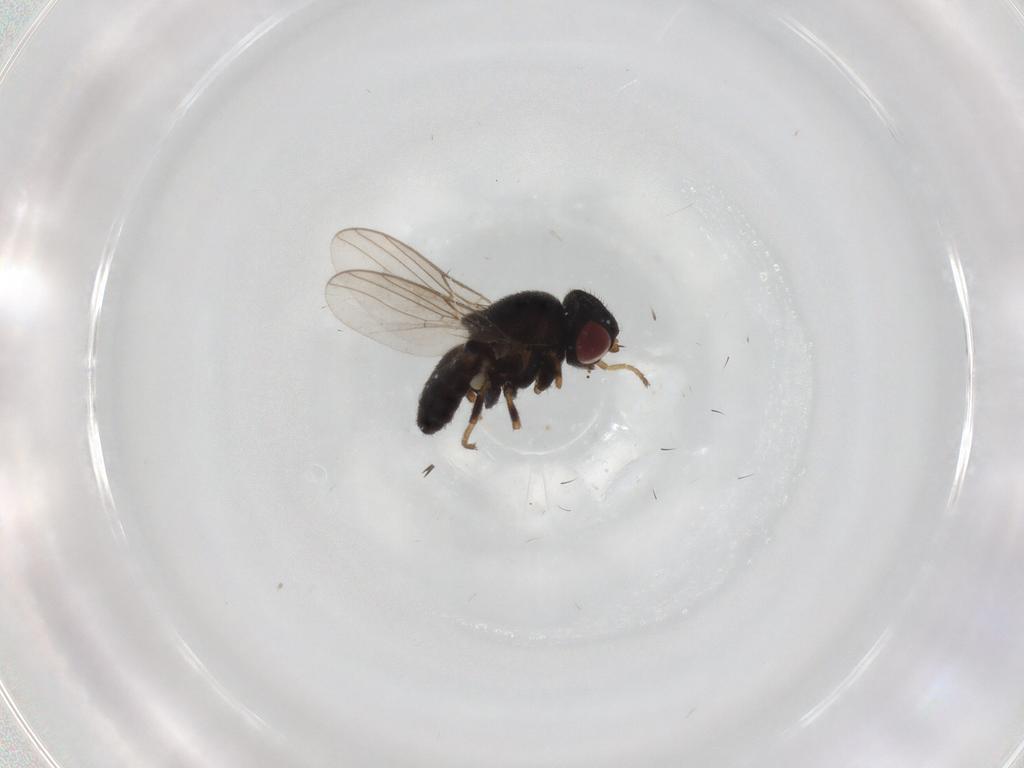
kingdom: Animalia
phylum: Arthropoda
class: Insecta
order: Diptera
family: Chloropidae
